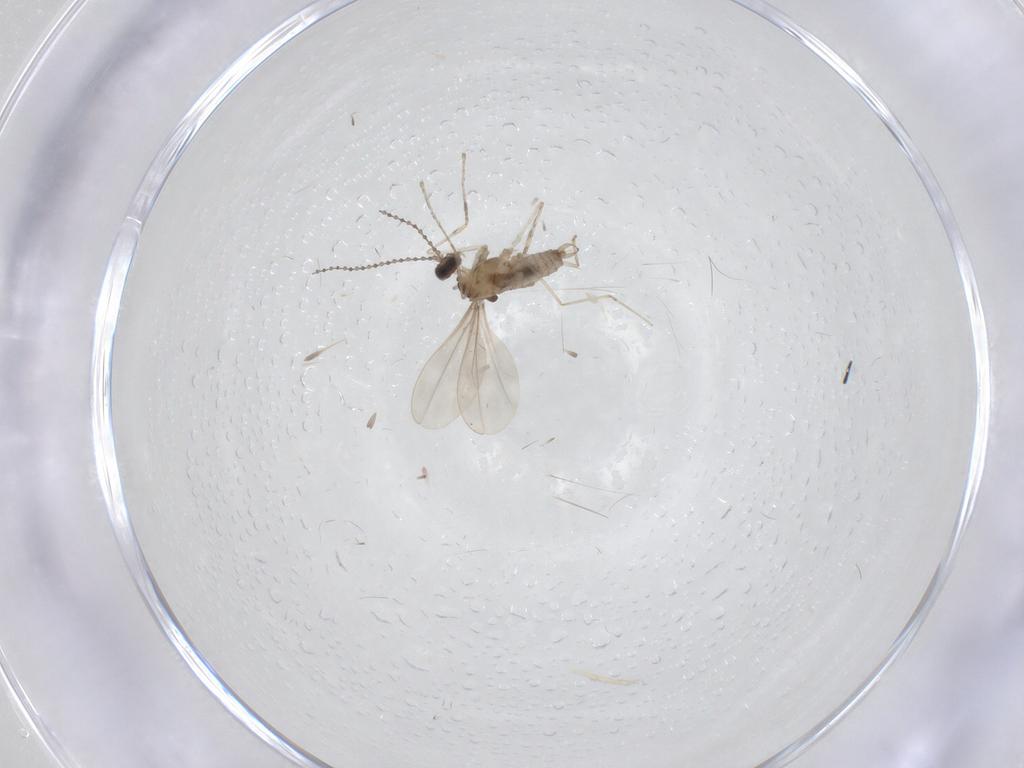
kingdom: Animalia
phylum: Arthropoda
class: Insecta
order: Diptera
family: Cecidomyiidae
